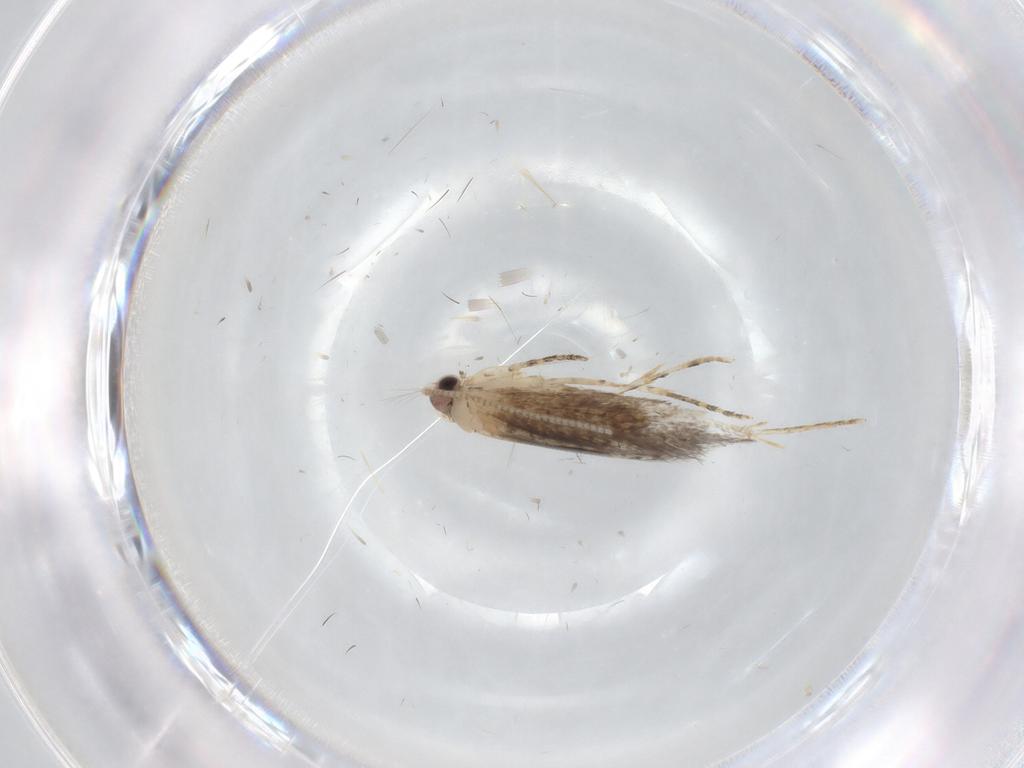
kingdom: Animalia
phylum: Arthropoda
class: Insecta
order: Lepidoptera
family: Tineidae
